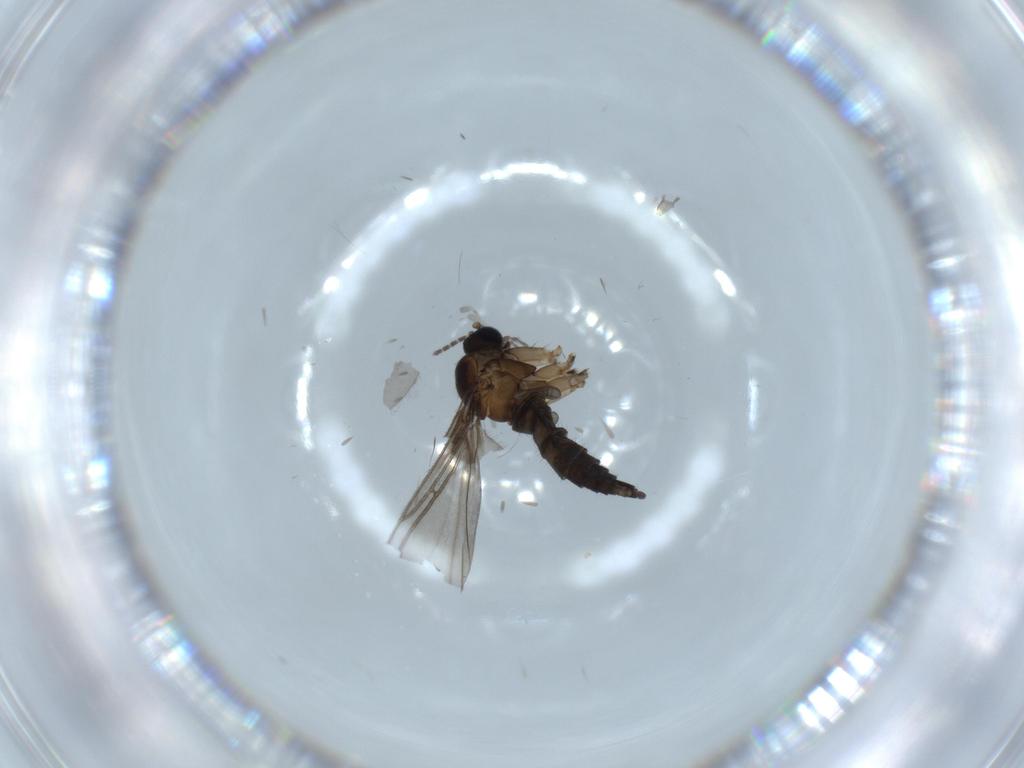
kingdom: Animalia
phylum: Arthropoda
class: Insecta
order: Diptera
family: Sciaridae
